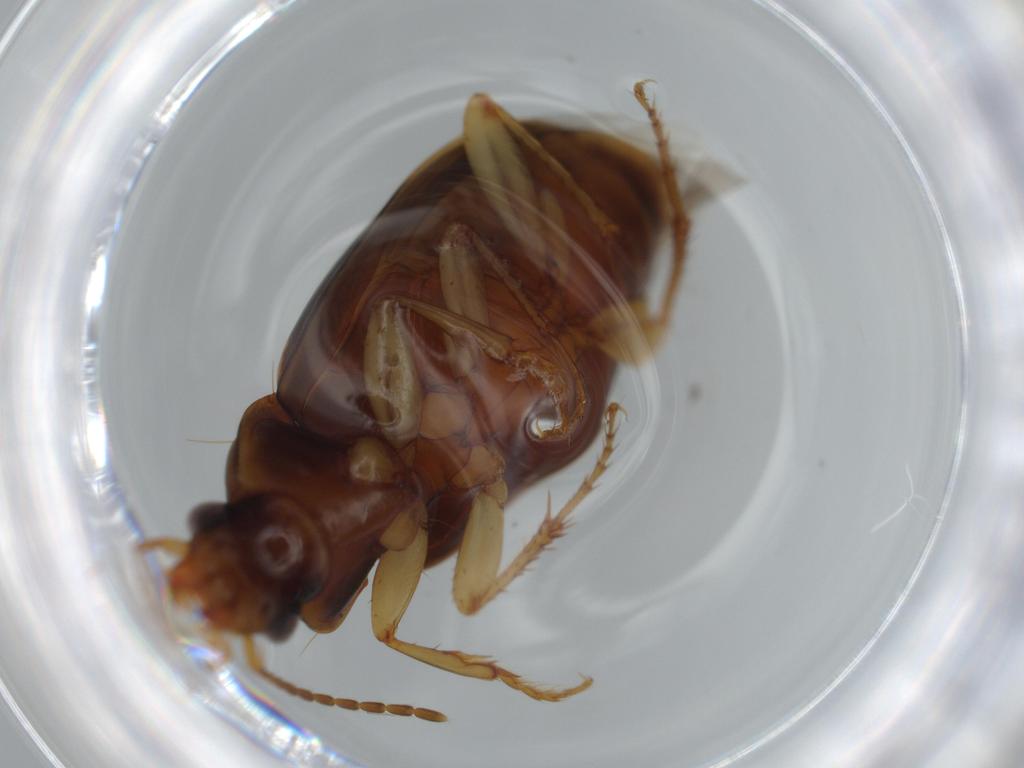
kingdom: Animalia
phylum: Arthropoda
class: Insecta
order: Coleoptera
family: Carabidae
